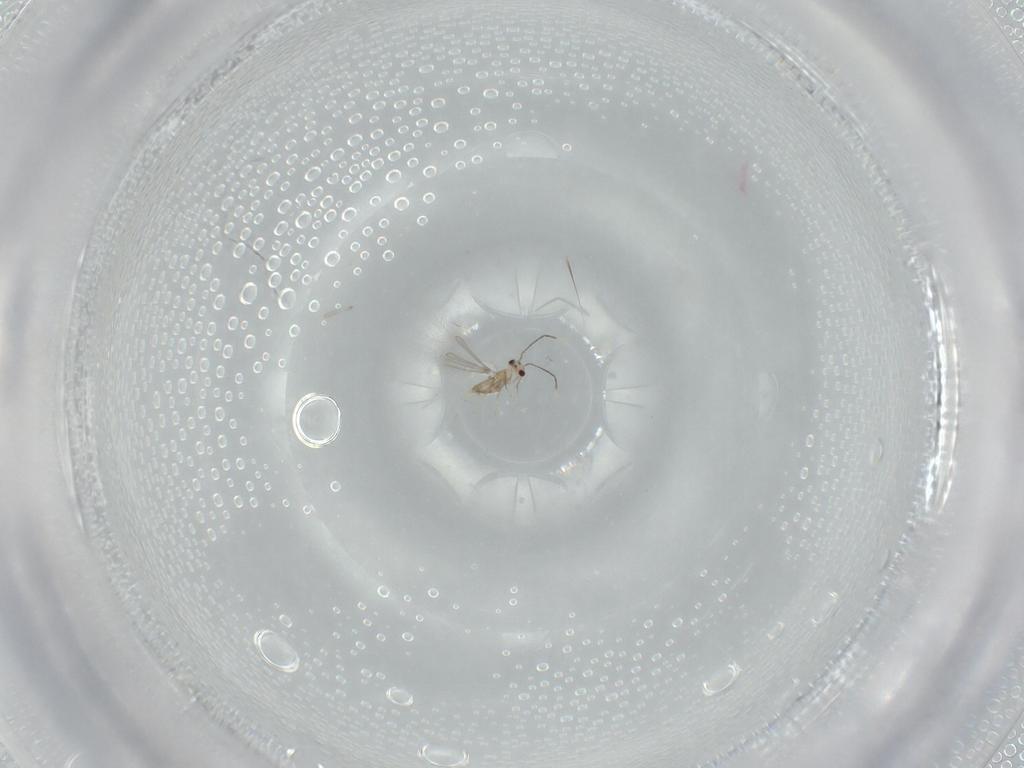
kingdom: Animalia
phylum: Arthropoda
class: Insecta
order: Hymenoptera
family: Mymaridae
